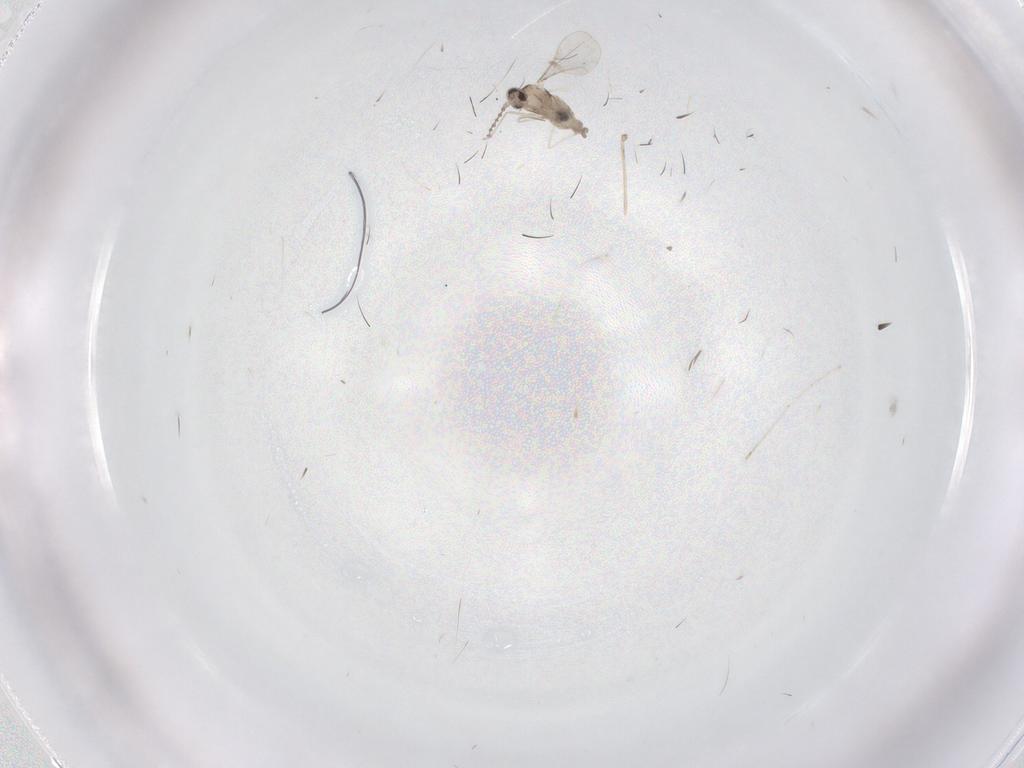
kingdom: Animalia
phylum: Arthropoda
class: Insecta
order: Diptera
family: Cecidomyiidae
